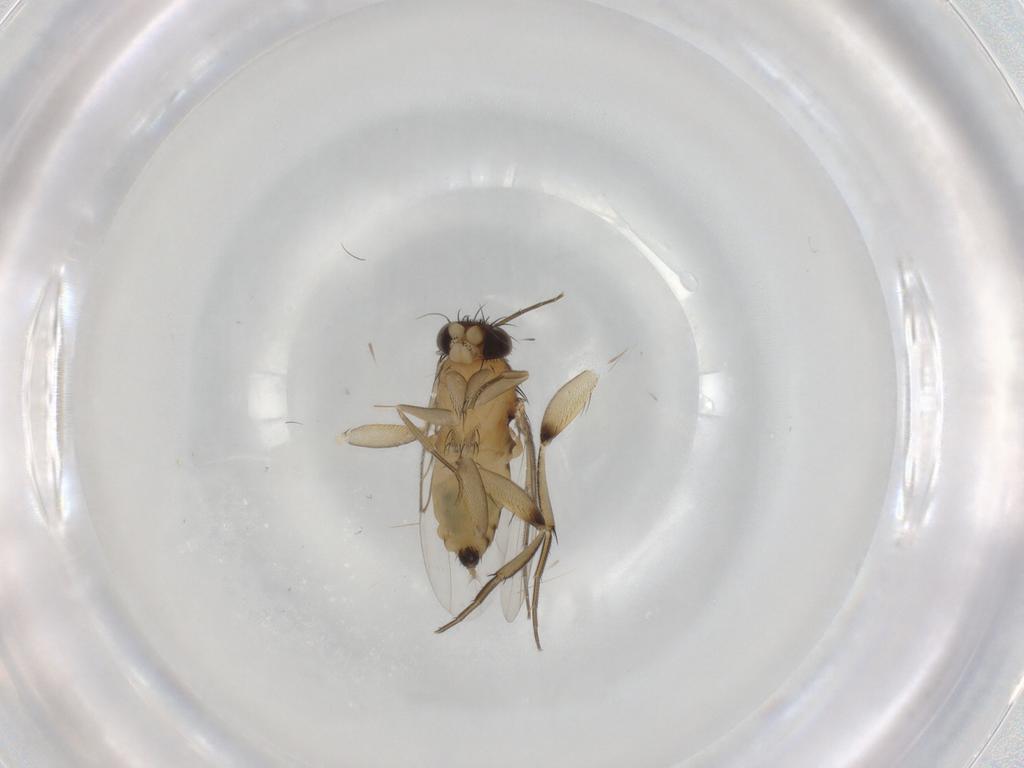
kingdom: Animalia
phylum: Arthropoda
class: Insecta
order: Diptera
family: Phoridae
